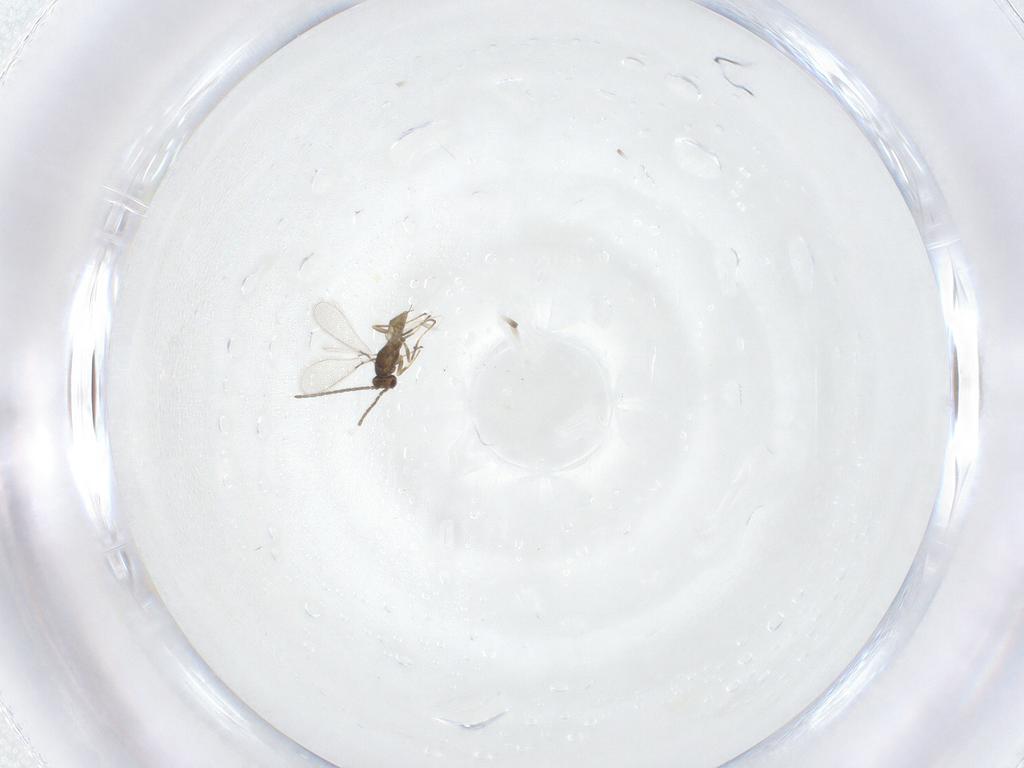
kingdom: Animalia
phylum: Arthropoda
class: Insecta
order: Hymenoptera
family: Mymaridae
